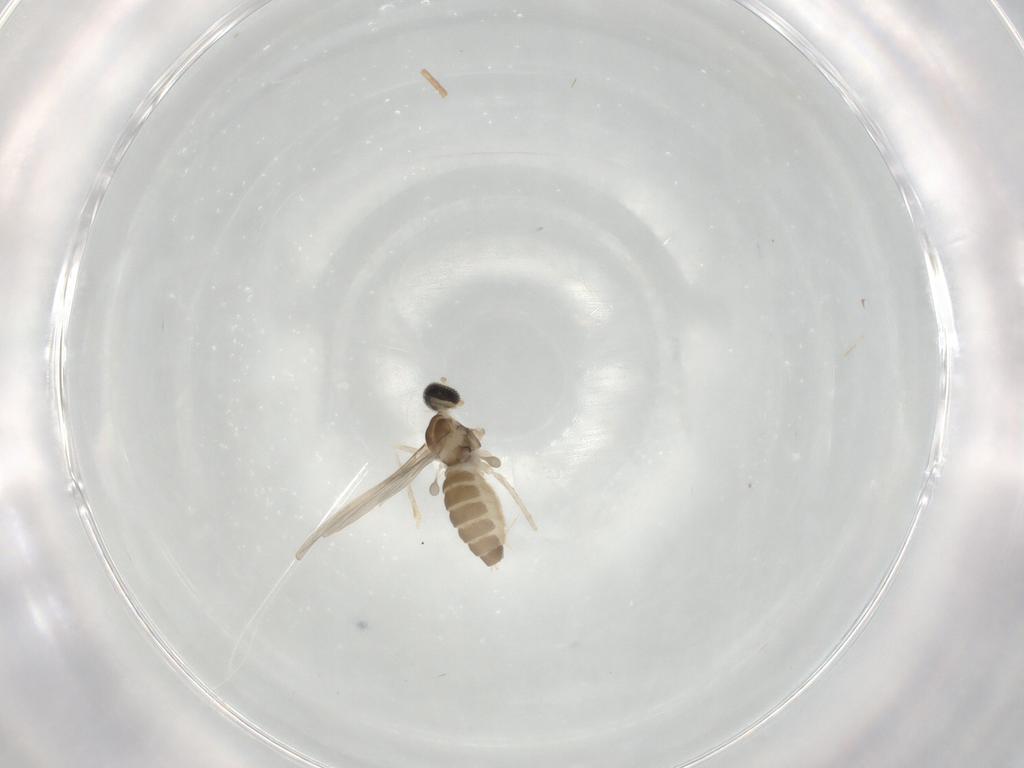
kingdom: Animalia
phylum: Arthropoda
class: Insecta
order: Diptera
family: Cecidomyiidae
